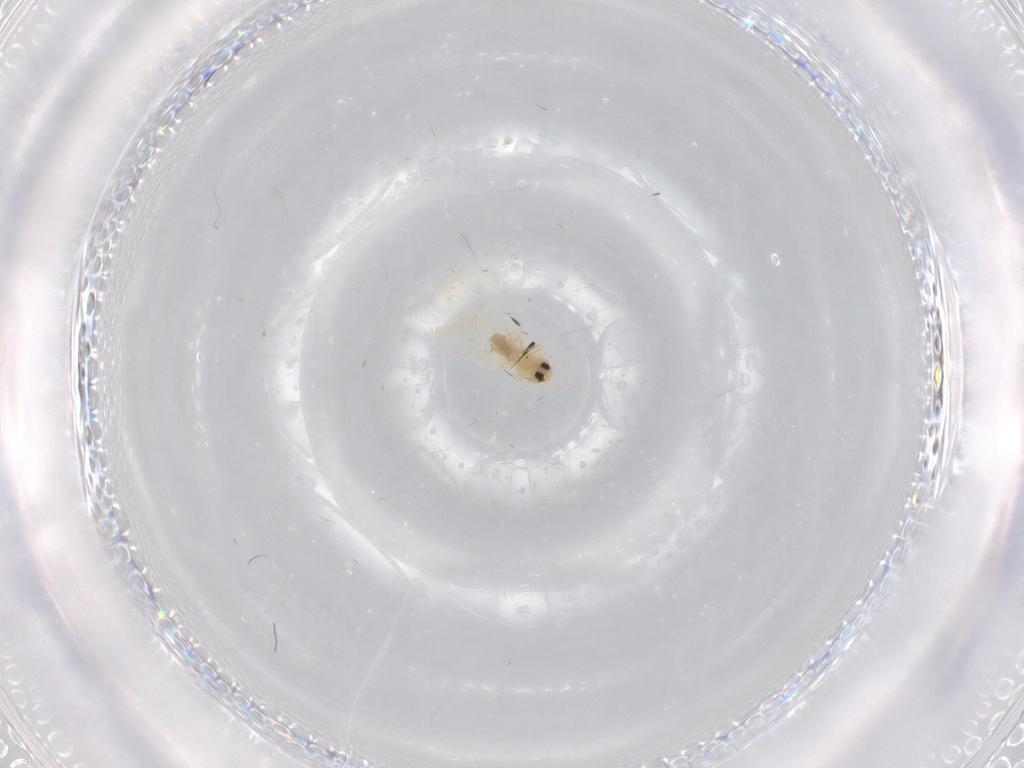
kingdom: Animalia
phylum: Arthropoda
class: Insecta
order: Hemiptera
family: Aleyrodidae
